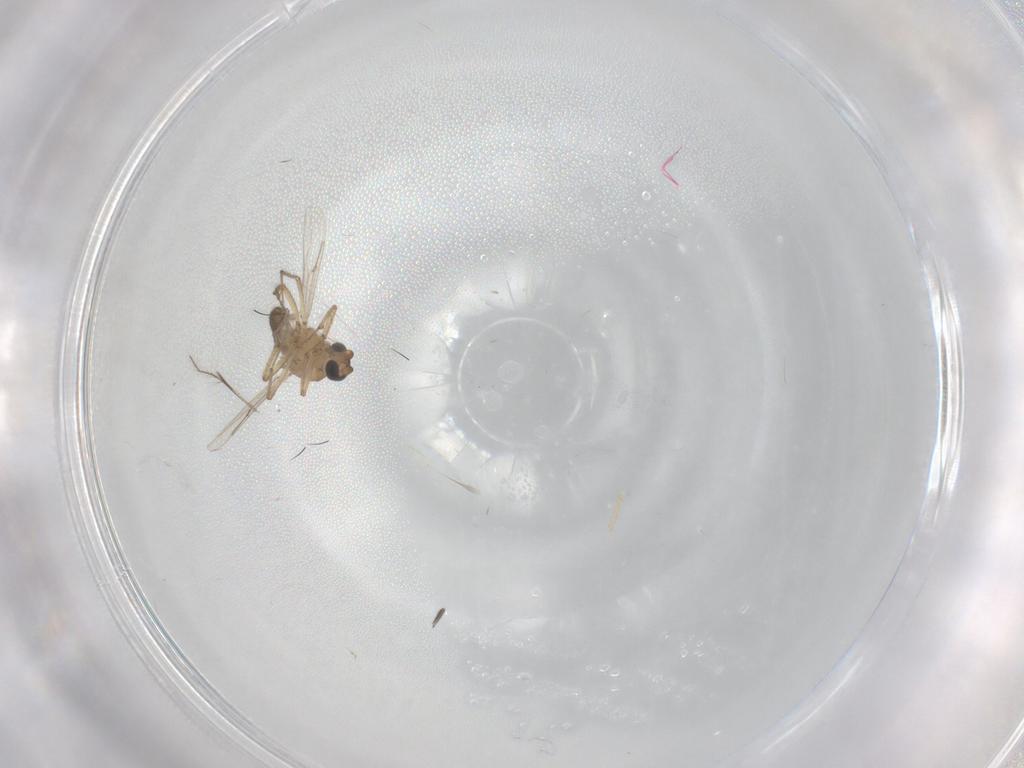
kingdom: Animalia
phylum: Arthropoda
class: Insecta
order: Diptera
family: Ceratopogonidae
